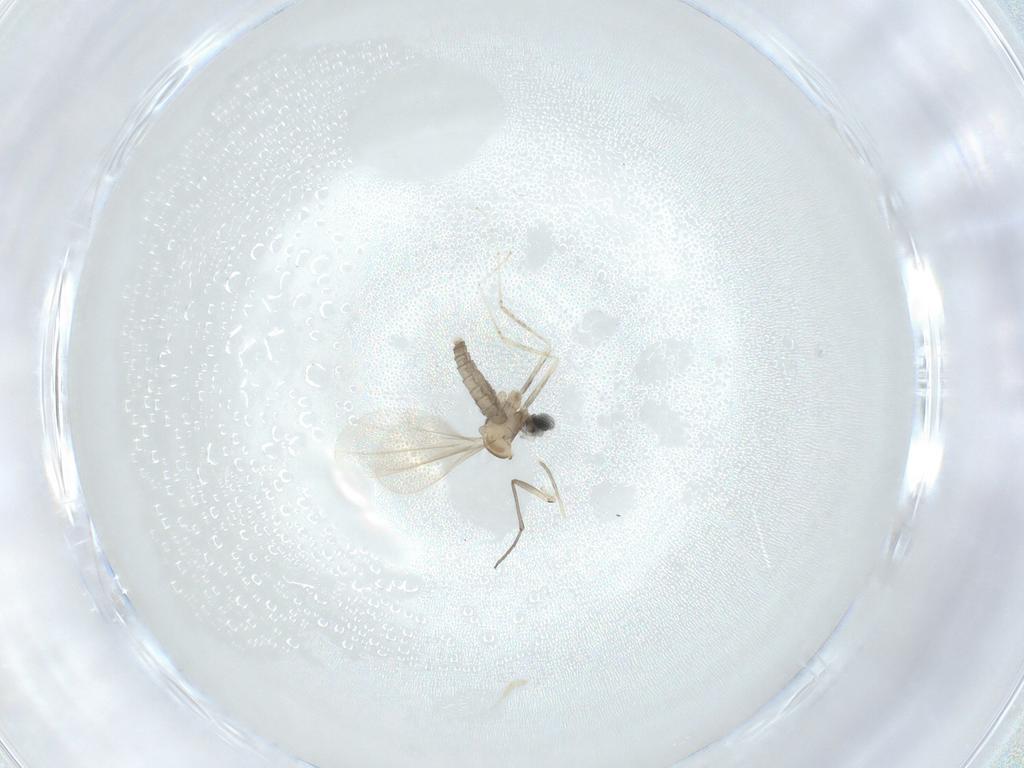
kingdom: Animalia
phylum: Arthropoda
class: Insecta
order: Diptera
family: Cecidomyiidae
